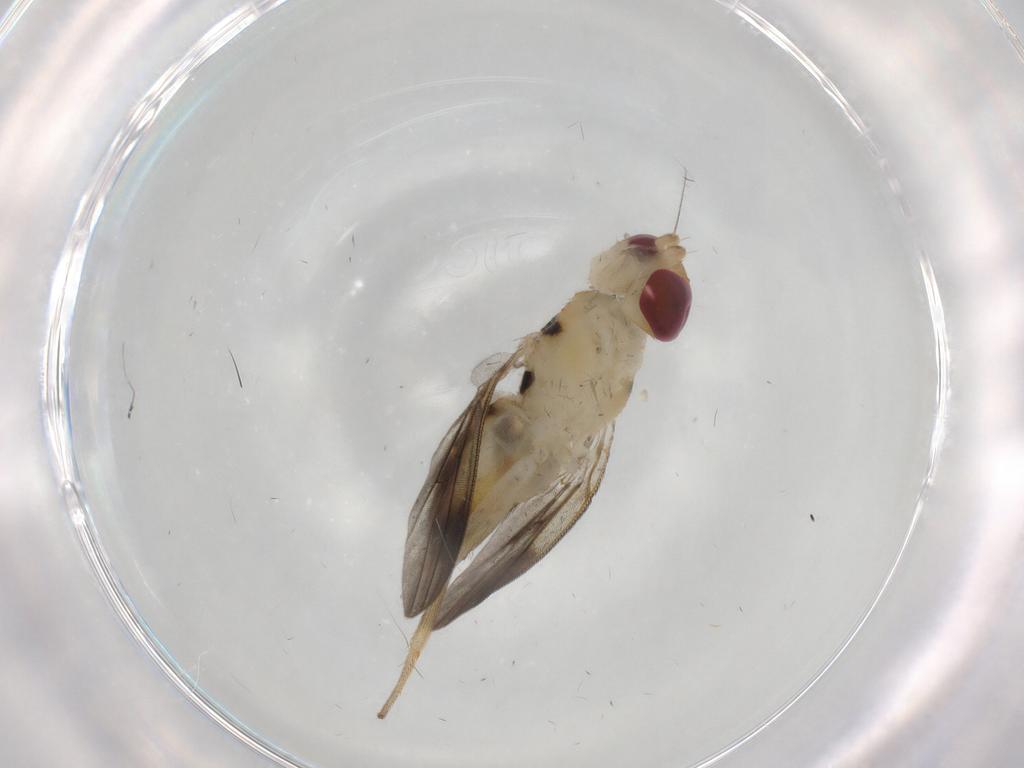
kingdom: Animalia
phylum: Arthropoda
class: Insecta
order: Diptera
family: Clusiidae
